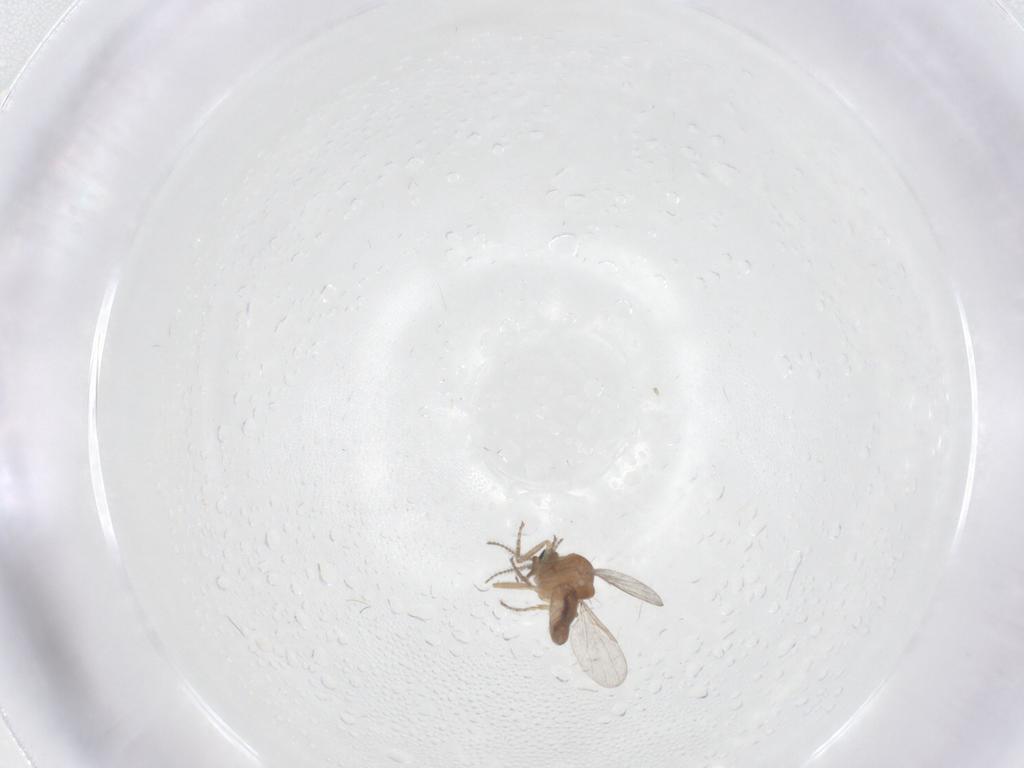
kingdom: Animalia
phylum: Arthropoda
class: Insecta
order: Diptera
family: Ceratopogonidae
